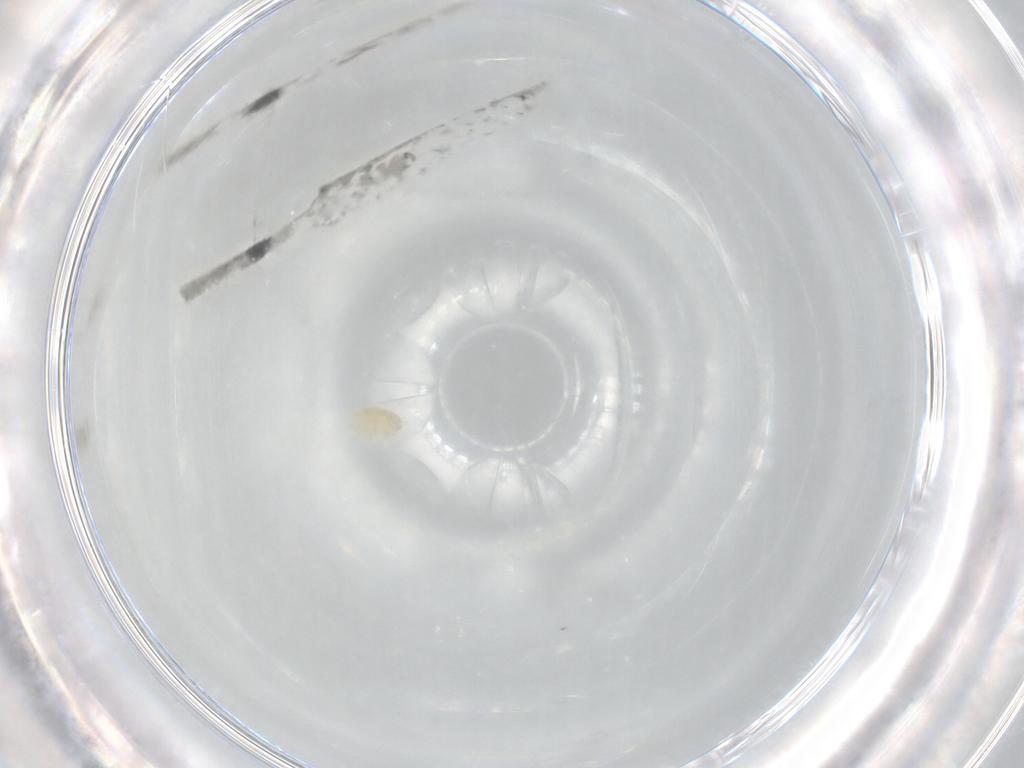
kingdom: Animalia
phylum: Arthropoda
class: Arachnida
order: Trombidiformes
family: Eupodidae
